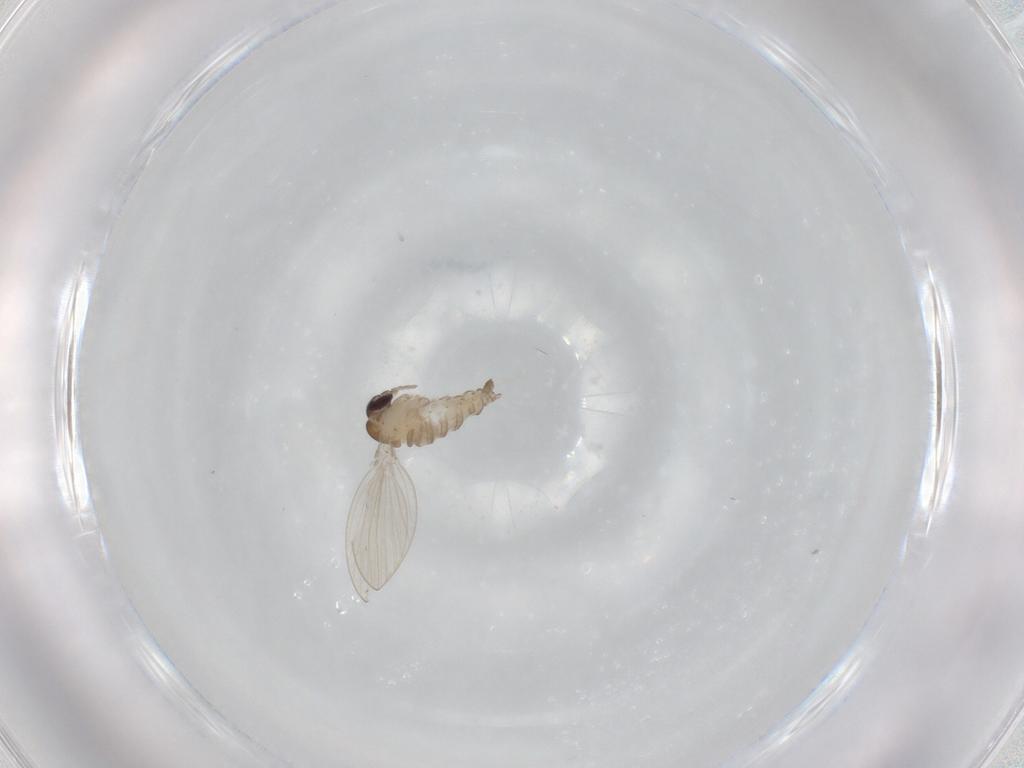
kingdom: Animalia
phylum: Arthropoda
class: Insecta
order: Diptera
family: Psychodidae
